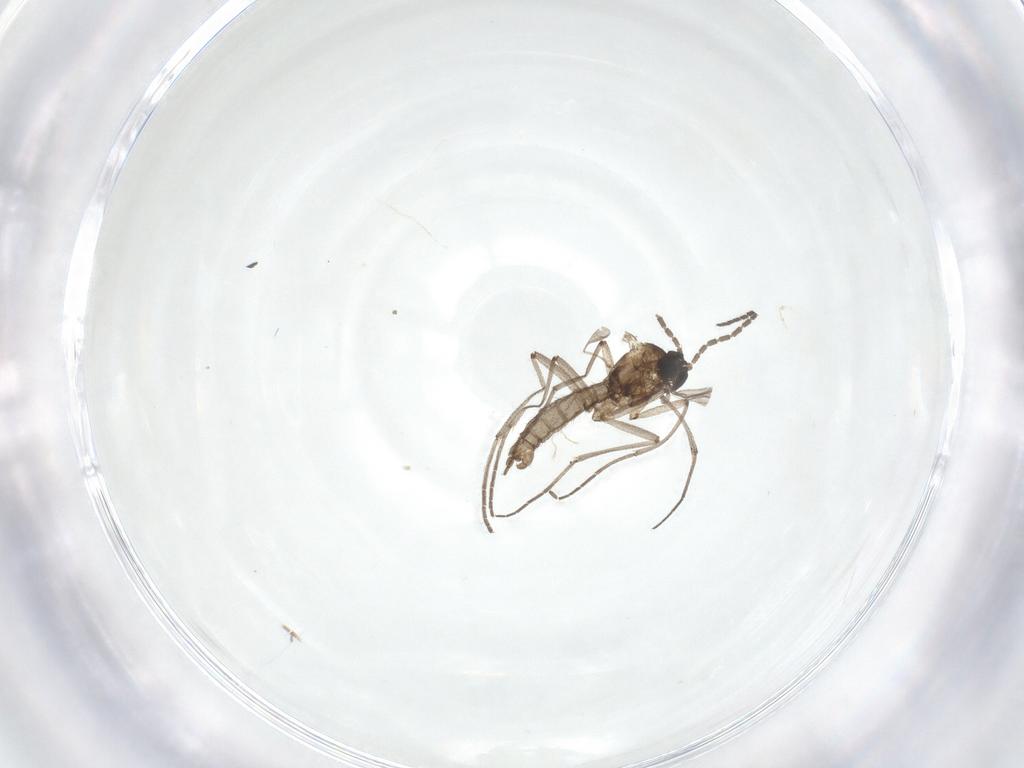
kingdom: Animalia
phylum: Arthropoda
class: Insecta
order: Diptera
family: Sciaridae
